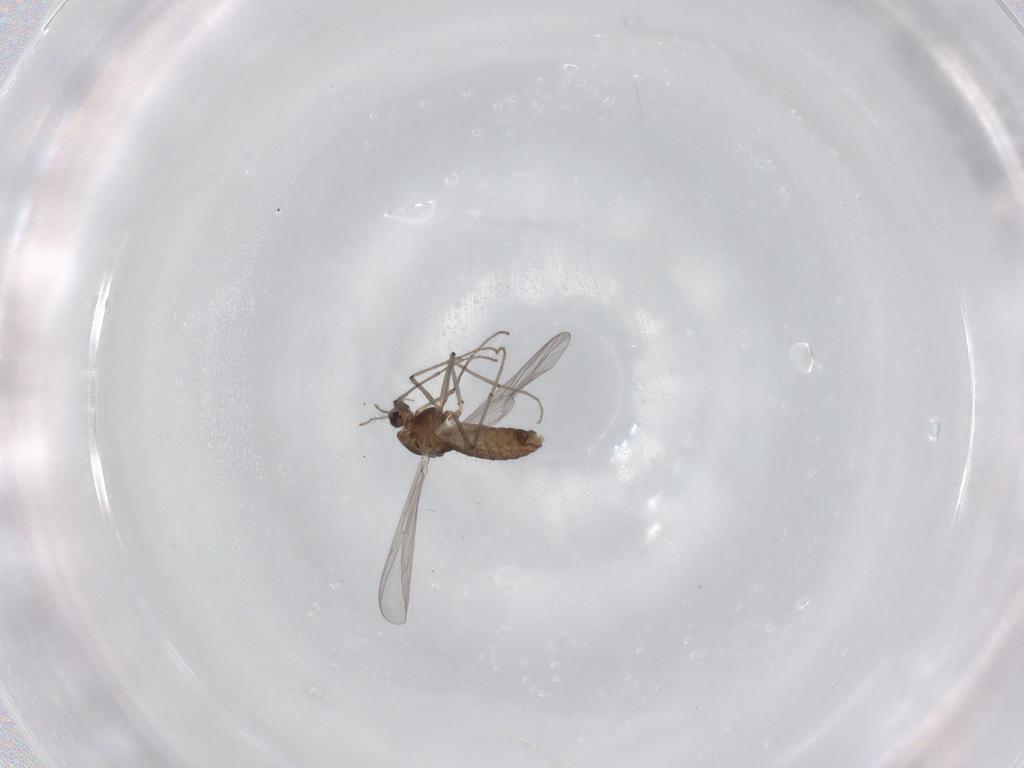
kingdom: Animalia
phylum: Arthropoda
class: Insecta
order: Diptera
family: Chironomidae
